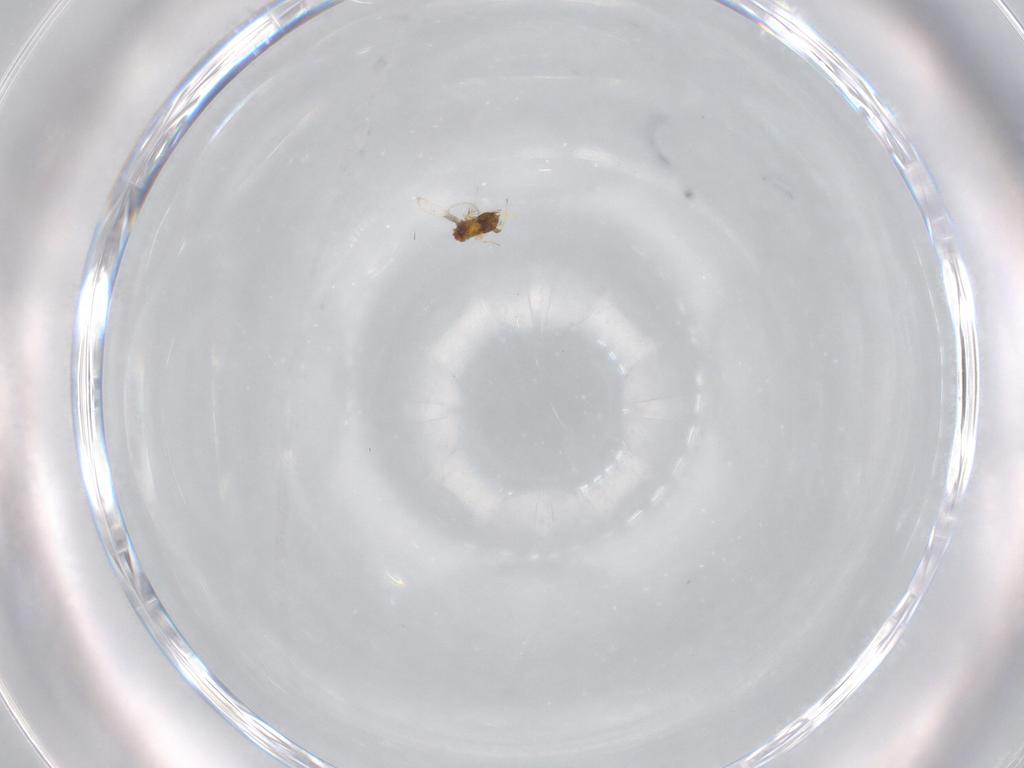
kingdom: Animalia
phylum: Arthropoda
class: Insecta
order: Hymenoptera
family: Trichogrammatidae
